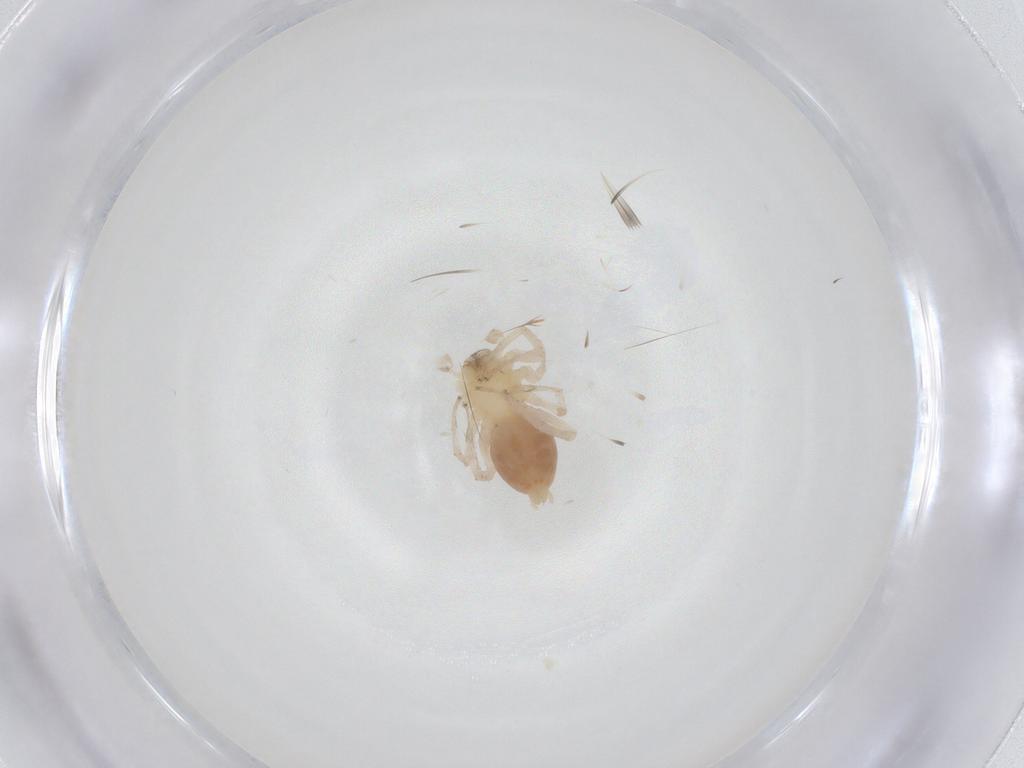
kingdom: Animalia
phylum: Arthropoda
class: Arachnida
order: Araneae
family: Anyphaenidae
